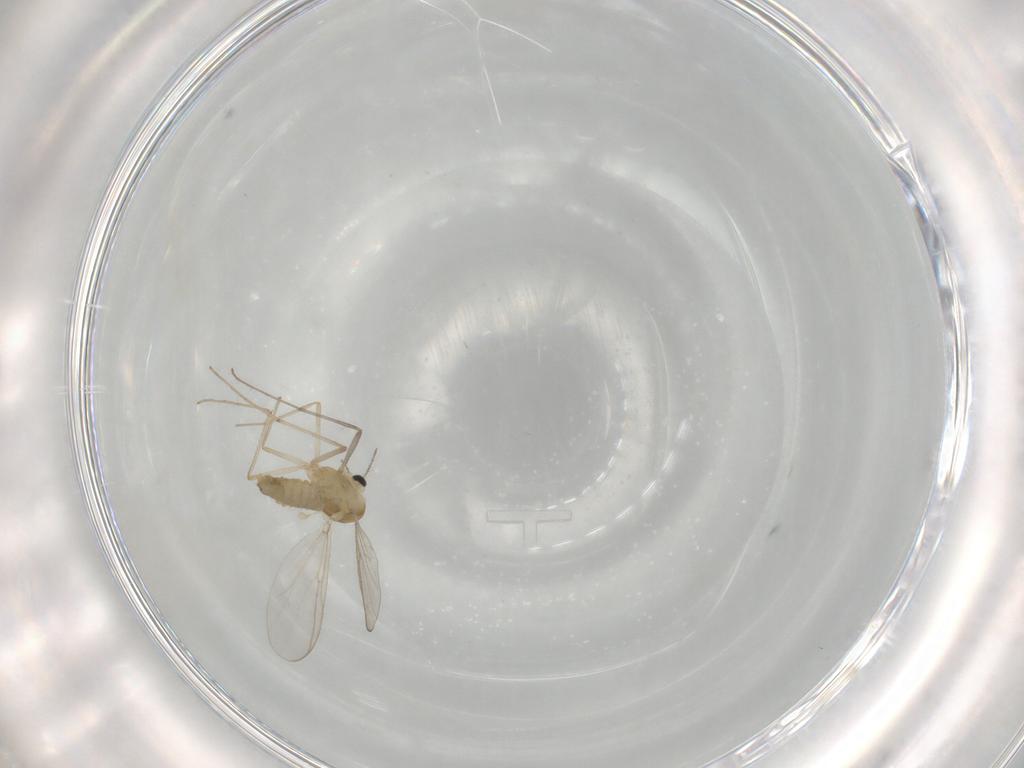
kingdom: Animalia
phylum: Arthropoda
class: Insecta
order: Diptera
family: Chironomidae
